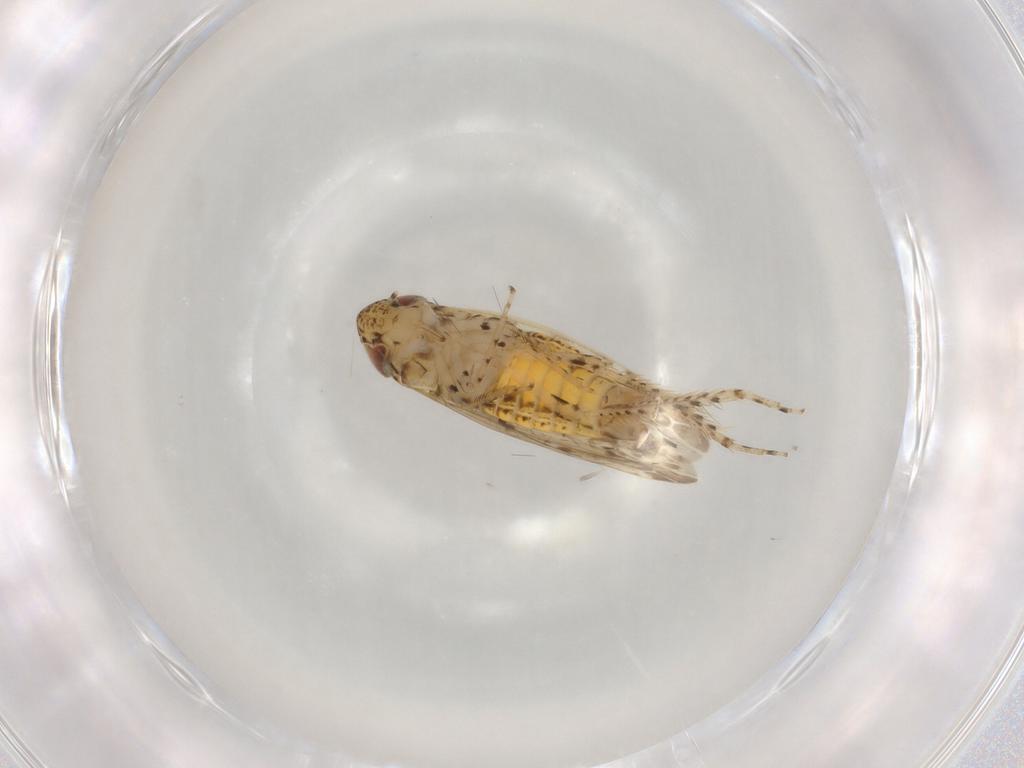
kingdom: Animalia
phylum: Arthropoda
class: Insecta
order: Hemiptera
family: Cicadellidae
